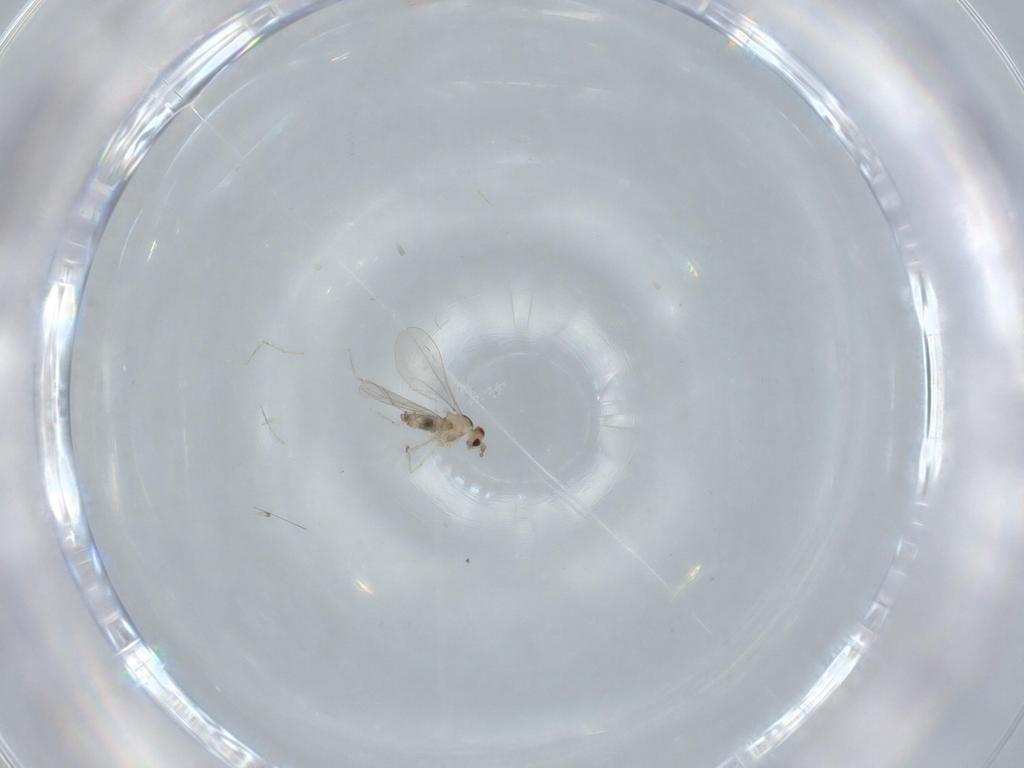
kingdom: Animalia
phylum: Arthropoda
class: Insecta
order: Diptera
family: Cecidomyiidae
